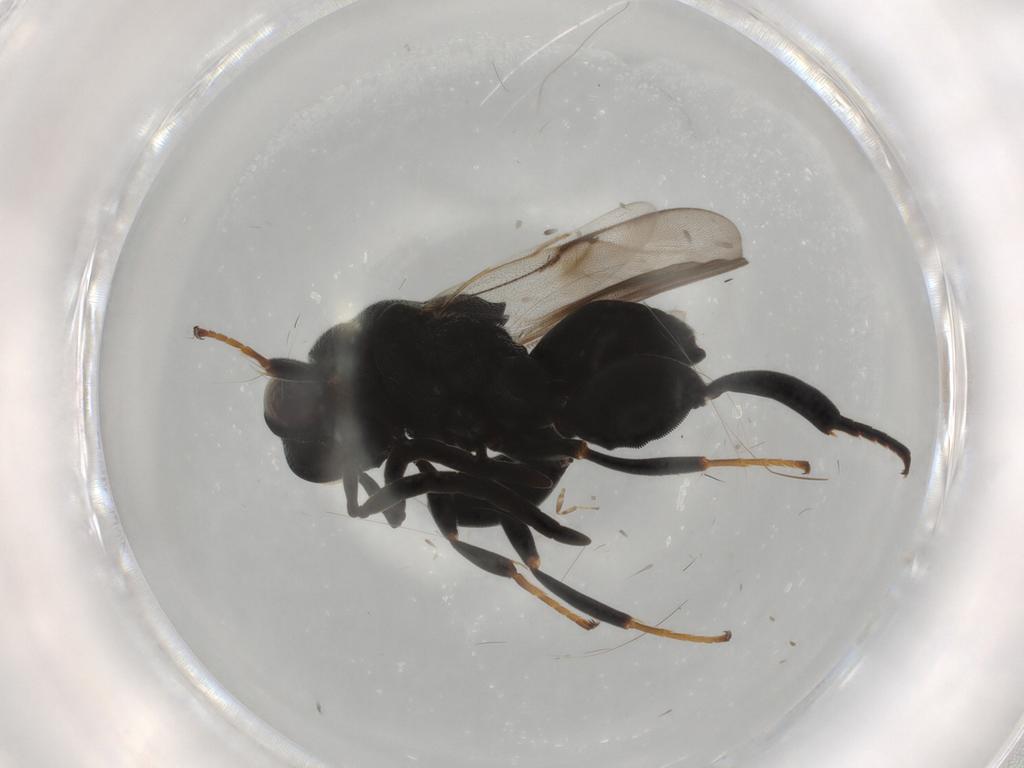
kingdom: Animalia
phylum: Arthropoda
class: Insecta
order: Hymenoptera
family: Chalcididae
